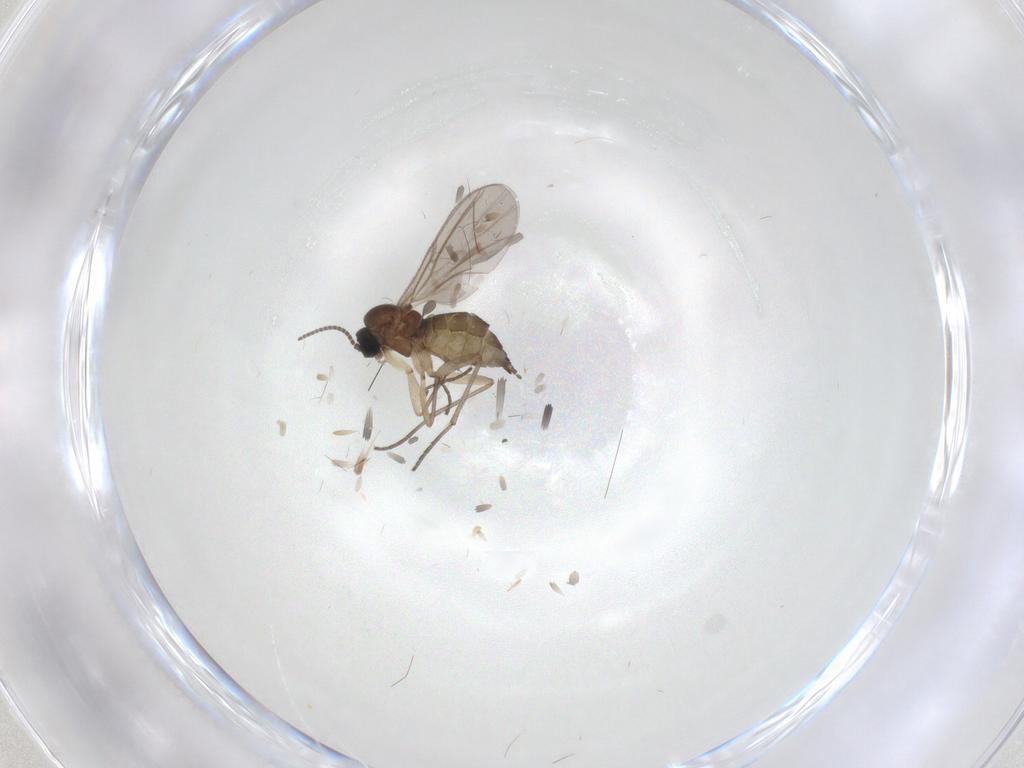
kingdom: Animalia
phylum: Arthropoda
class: Insecta
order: Diptera
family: Sciaridae
